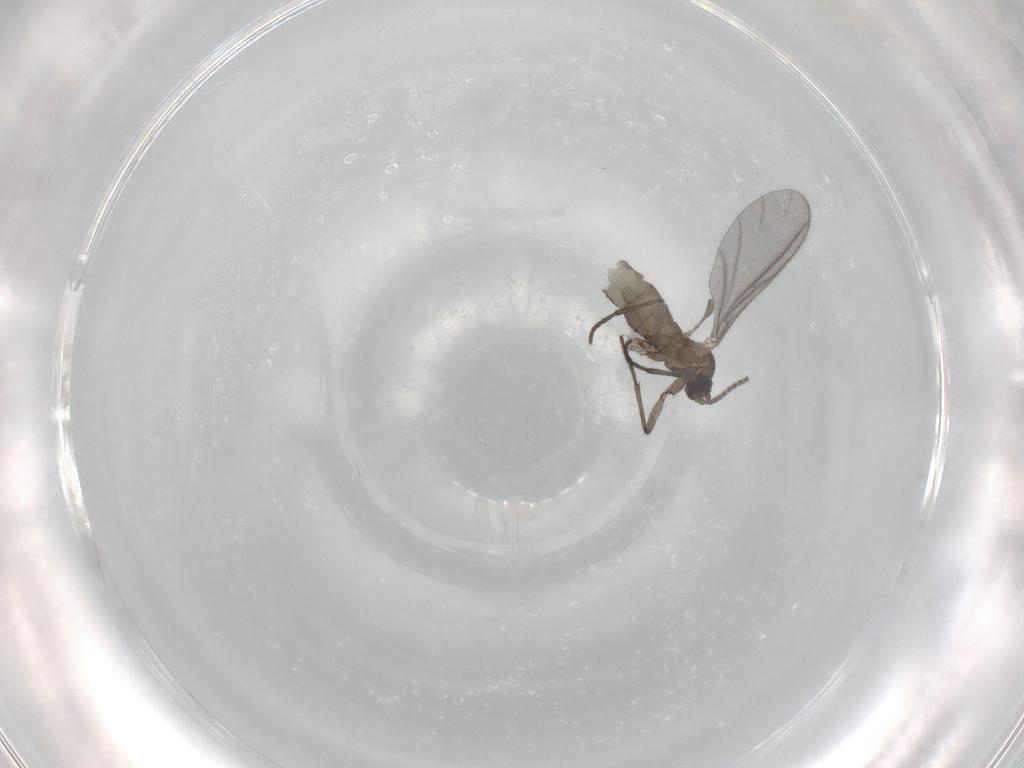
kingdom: Animalia
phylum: Arthropoda
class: Insecta
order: Diptera
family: Sciaridae
